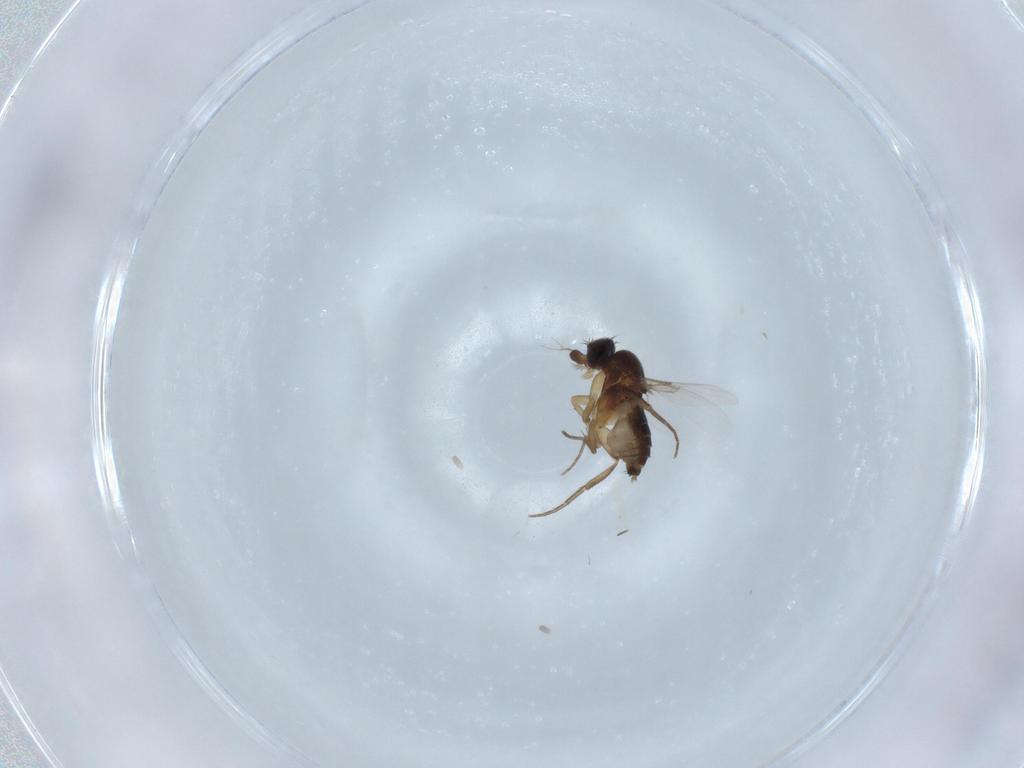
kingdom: Animalia
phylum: Arthropoda
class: Insecta
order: Diptera
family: Phoridae
